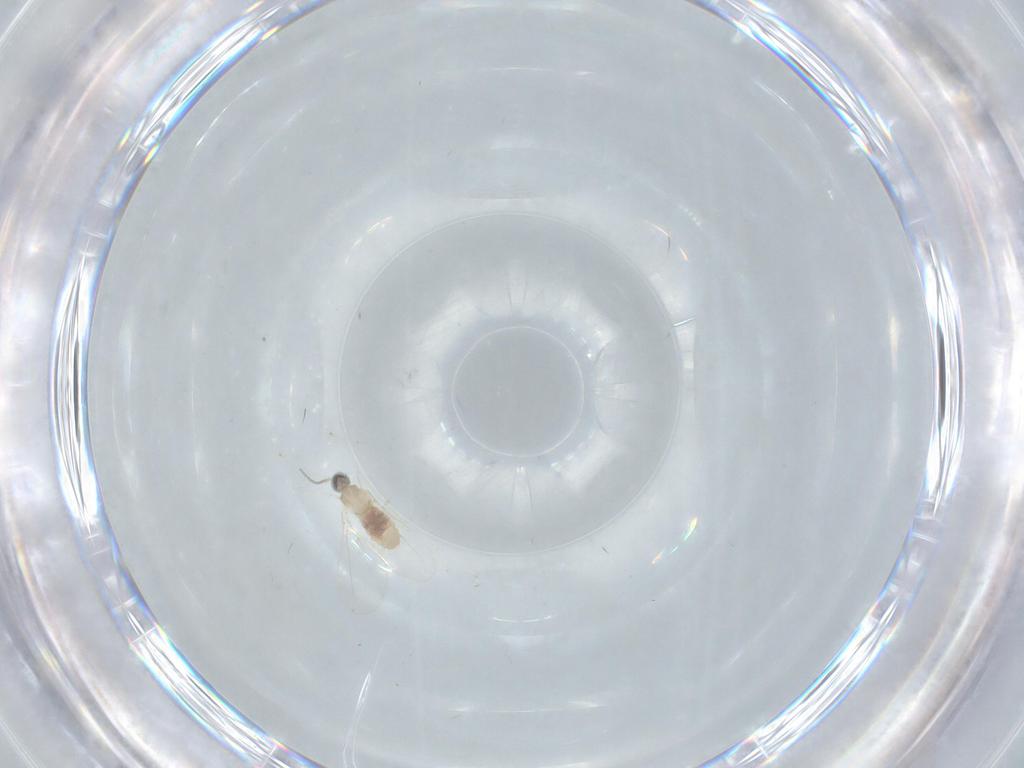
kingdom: Animalia
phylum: Arthropoda
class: Insecta
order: Diptera
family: Cecidomyiidae
